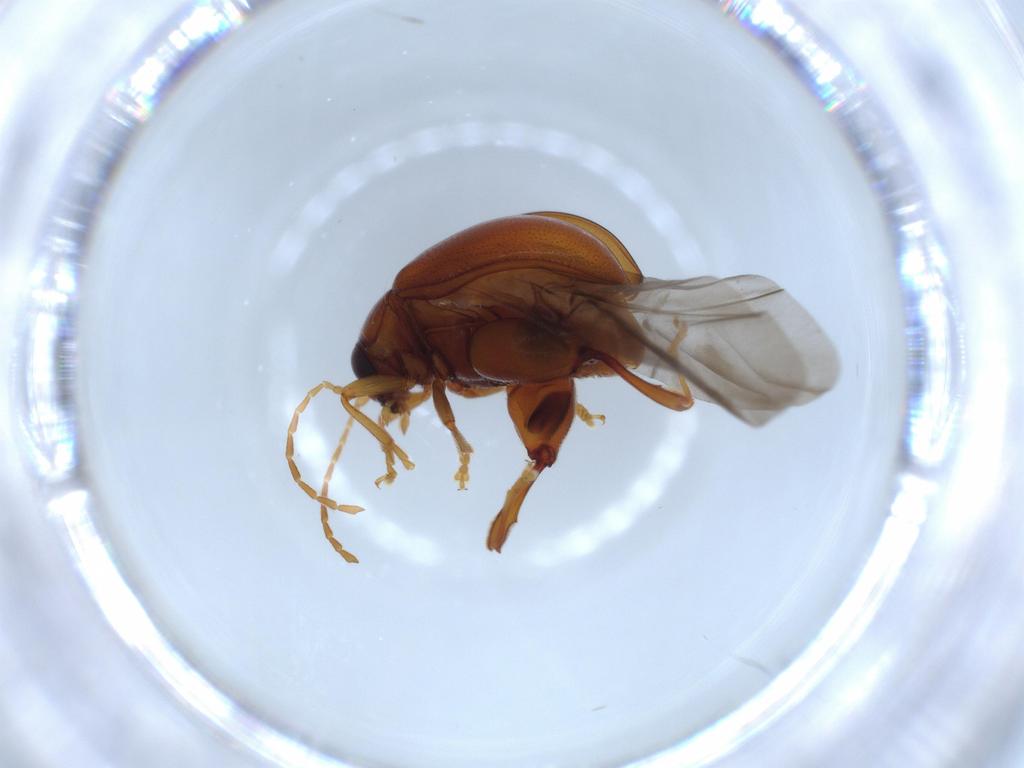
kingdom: Animalia
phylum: Arthropoda
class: Insecta
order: Coleoptera
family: Chrysomelidae
